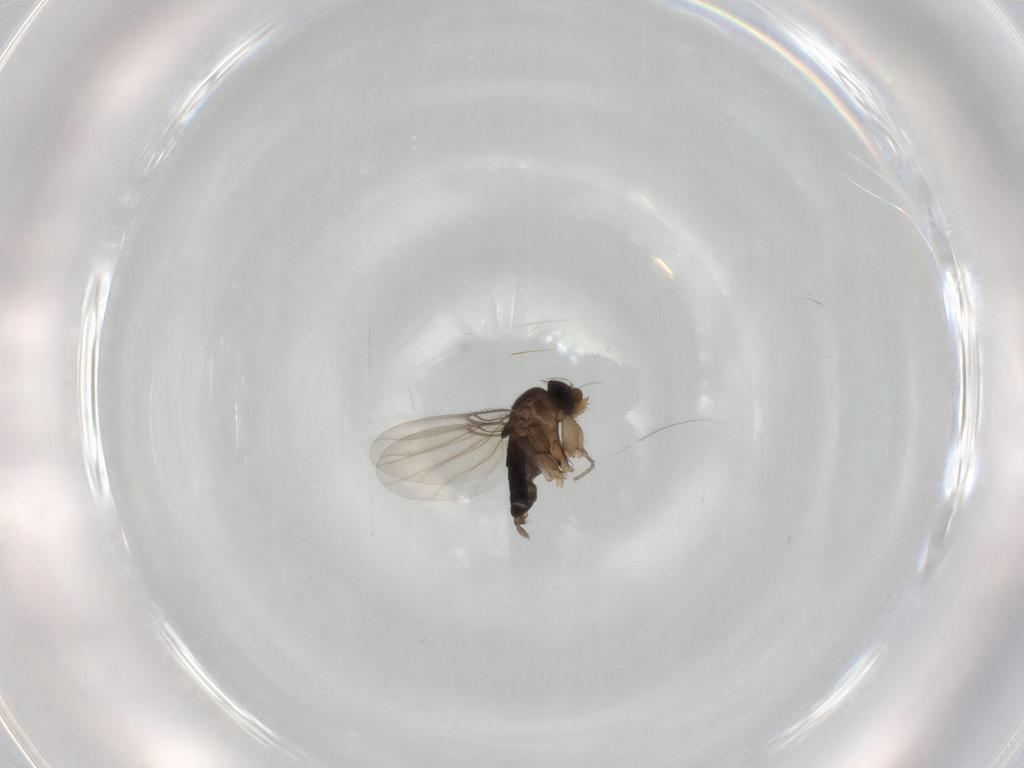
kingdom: Animalia
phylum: Arthropoda
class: Insecta
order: Diptera
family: Phoridae
